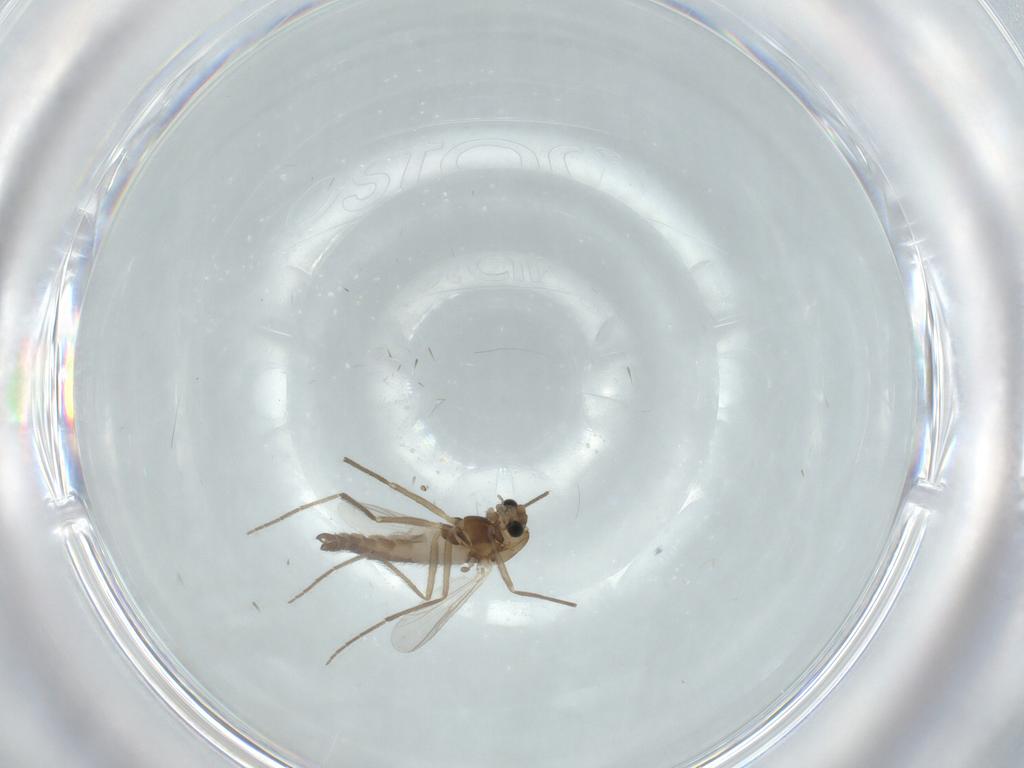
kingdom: Animalia
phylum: Arthropoda
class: Insecta
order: Diptera
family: Chironomidae
